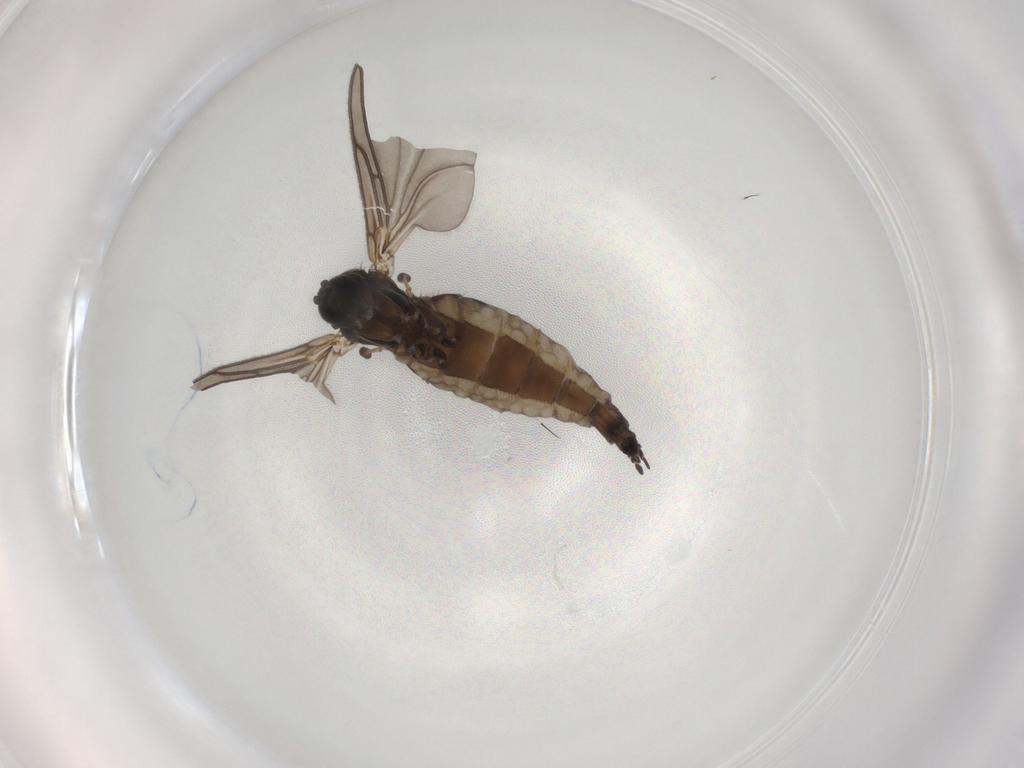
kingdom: Animalia
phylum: Arthropoda
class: Insecta
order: Diptera
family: Sciaridae
